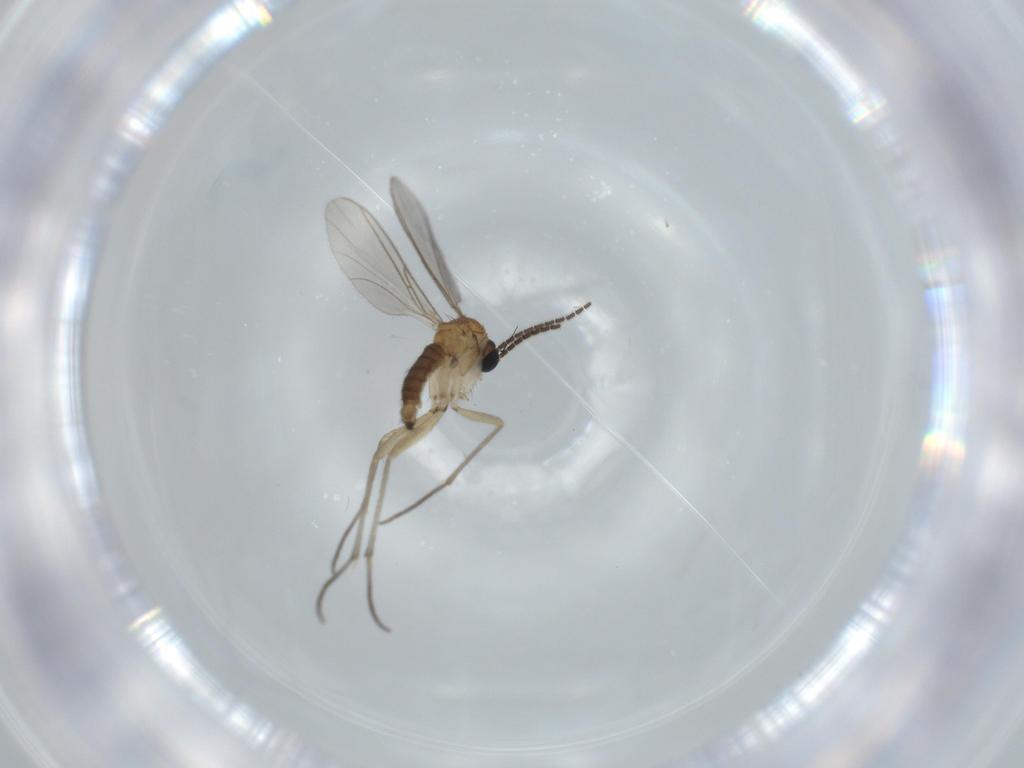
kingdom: Animalia
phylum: Arthropoda
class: Insecta
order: Diptera
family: Sciaridae
